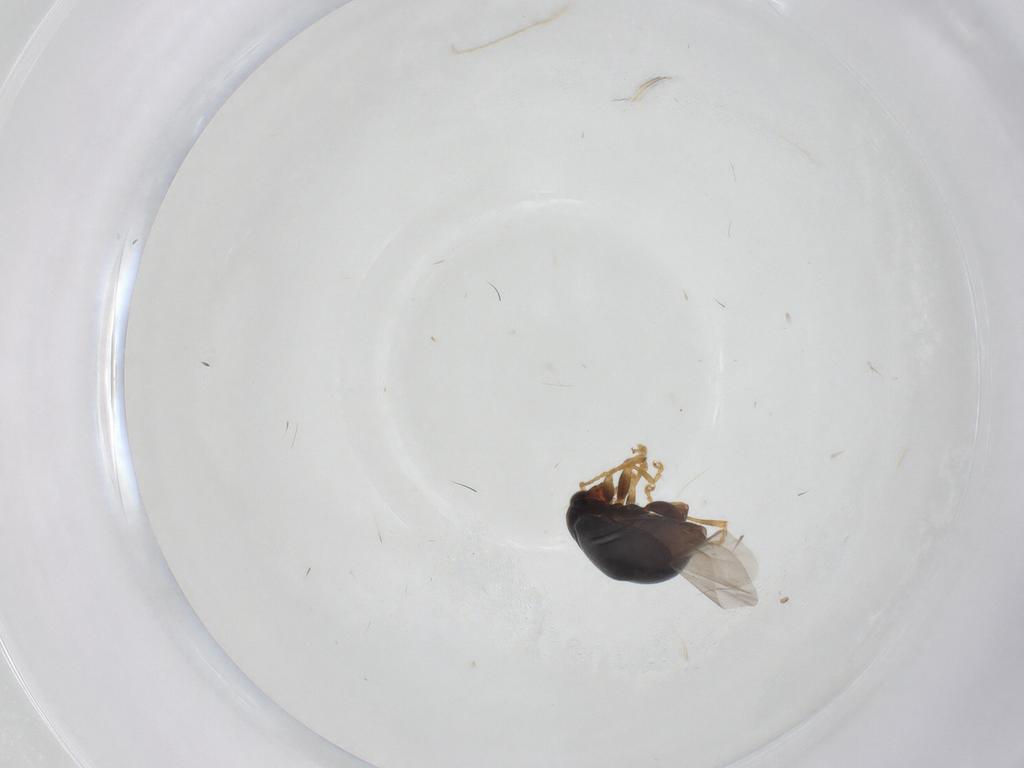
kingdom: Animalia
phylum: Arthropoda
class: Insecta
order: Coleoptera
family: Chrysomelidae
